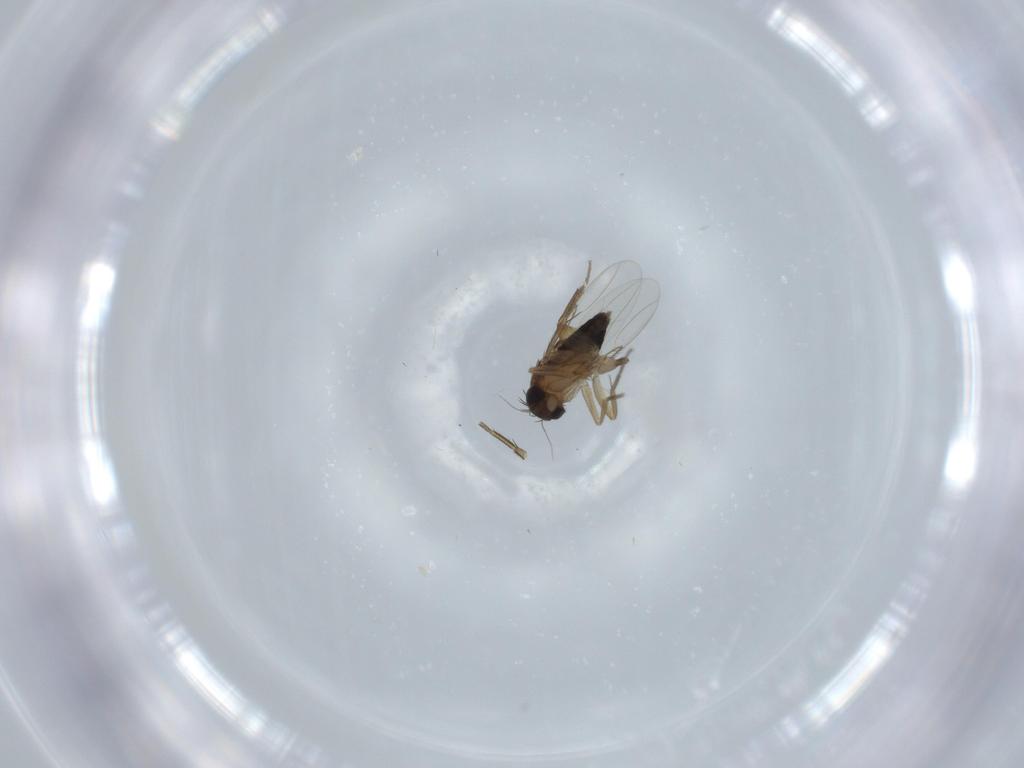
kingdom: Animalia
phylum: Arthropoda
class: Insecta
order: Diptera
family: Phoridae
